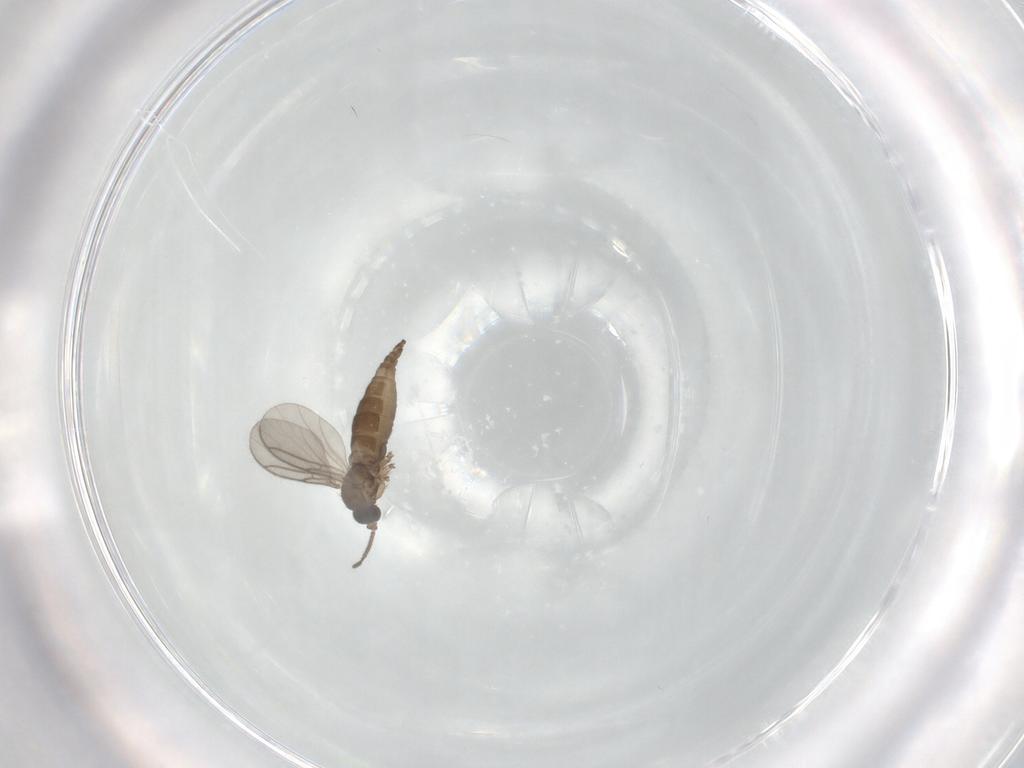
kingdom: Animalia
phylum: Arthropoda
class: Insecta
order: Diptera
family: Sciaridae
